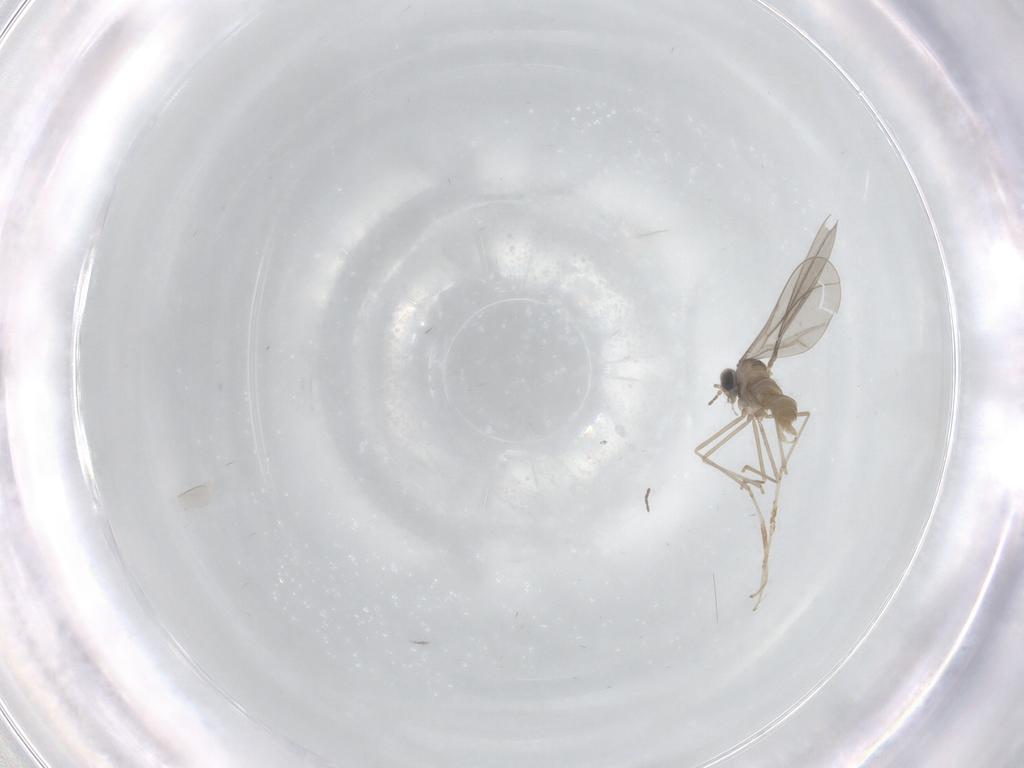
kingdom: Animalia
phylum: Arthropoda
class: Insecta
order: Diptera
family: Cecidomyiidae
